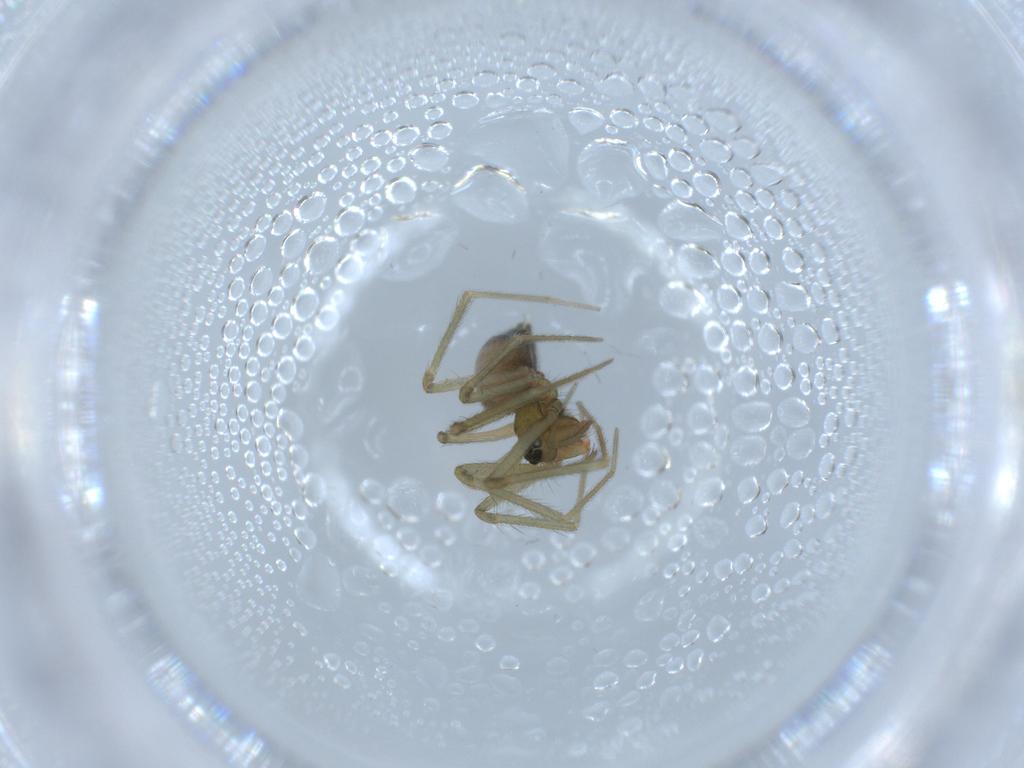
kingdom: Animalia
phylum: Arthropoda
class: Arachnida
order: Araneae
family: Linyphiidae
